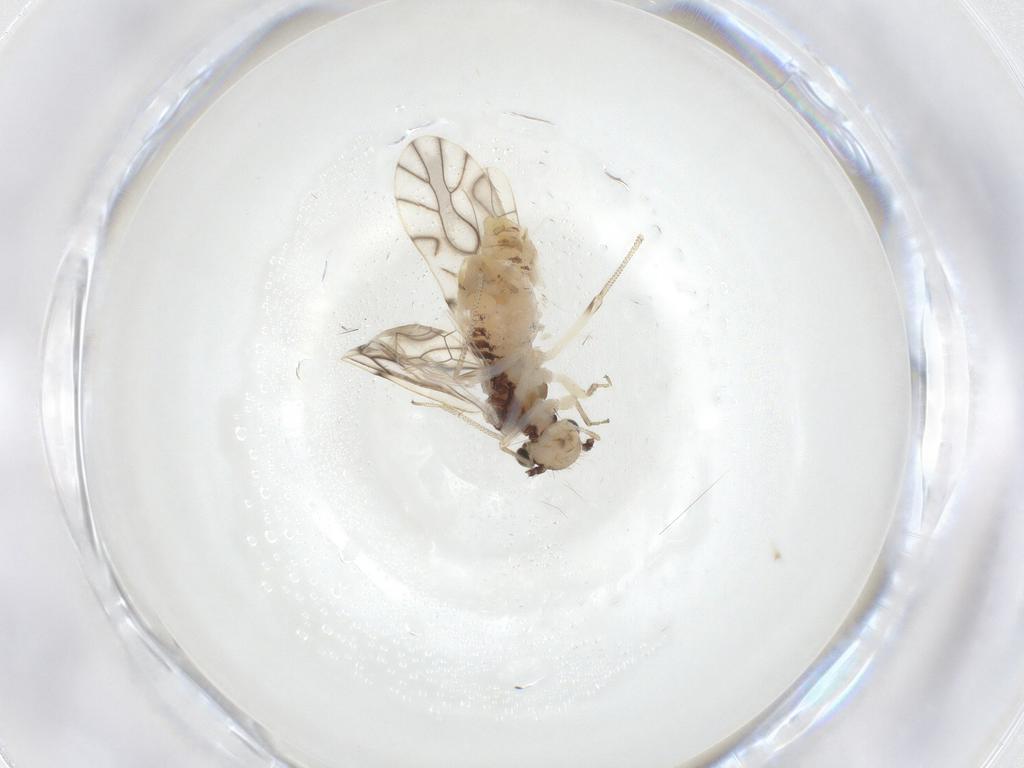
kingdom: Animalia
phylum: Arthropoda
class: Insecta
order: Psocodea
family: Caeciliusidae
